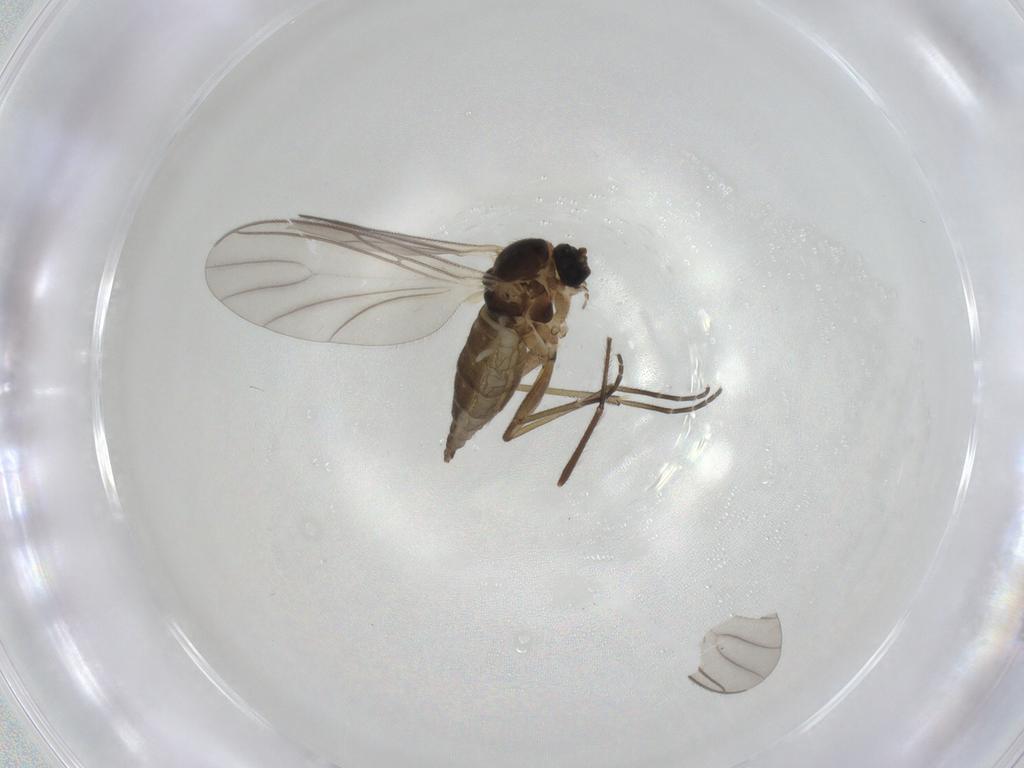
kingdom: Animalia
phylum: Arthropoda
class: Insecta
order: Diptera
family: Chironomidae
